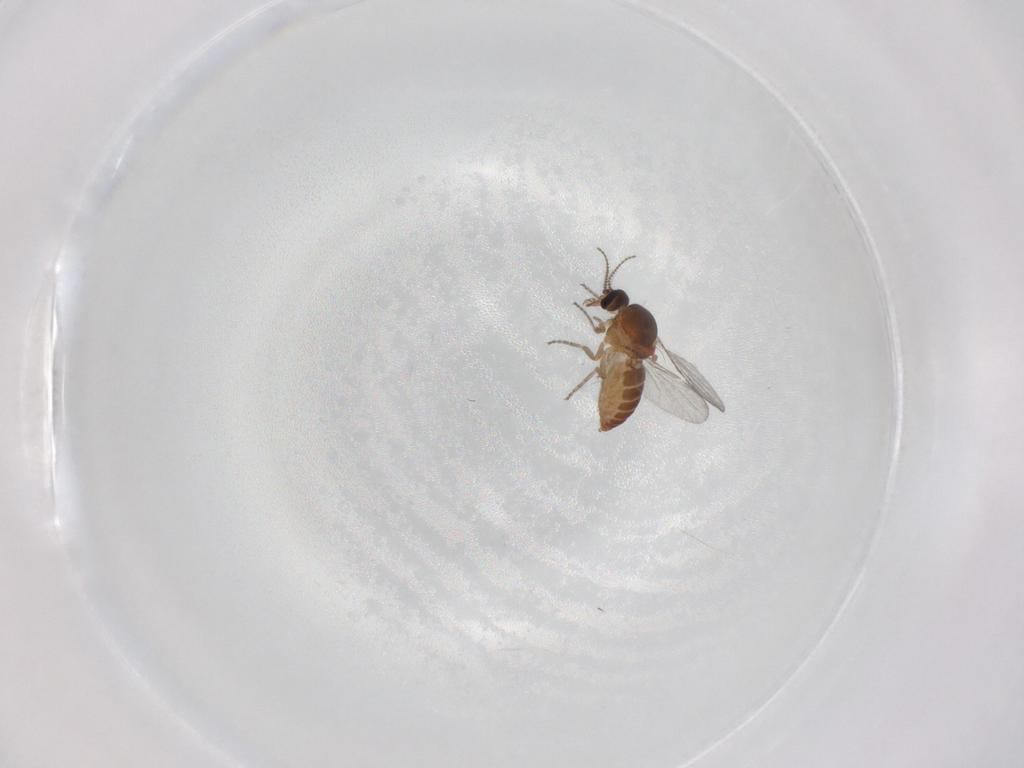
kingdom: Animalia
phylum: Arthropoda
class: Insecta
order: Diptera
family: Ceratopogonidae
